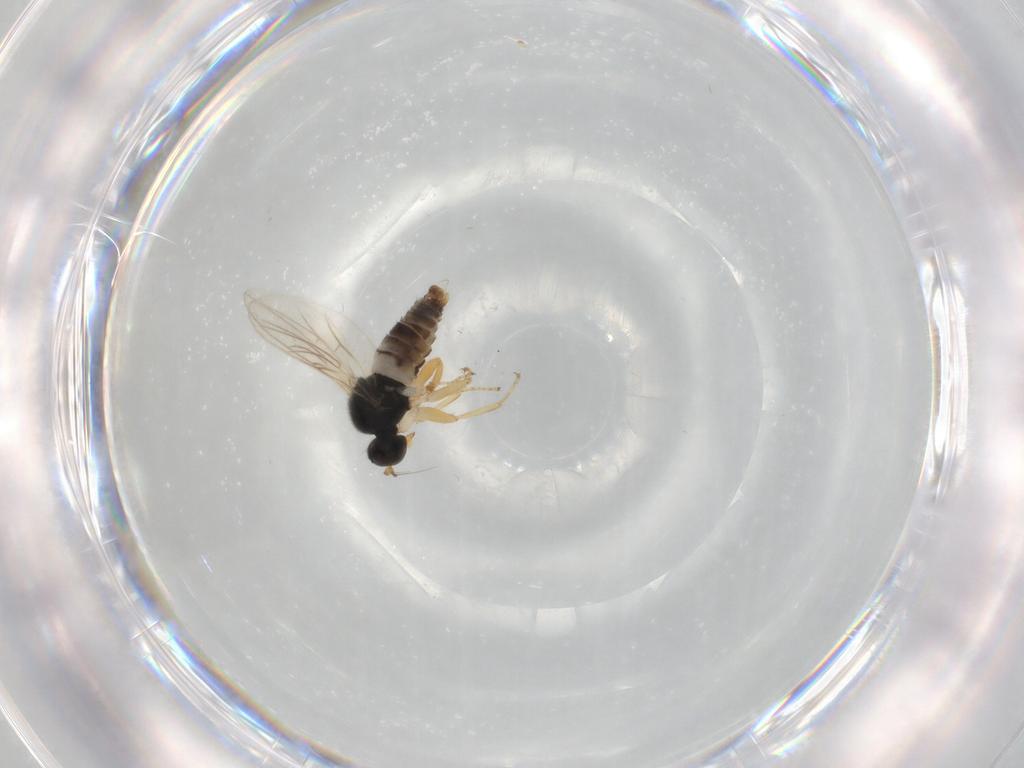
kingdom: Animalia
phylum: Arthropoda
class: Insecta
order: Diptera
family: Hybotidae
